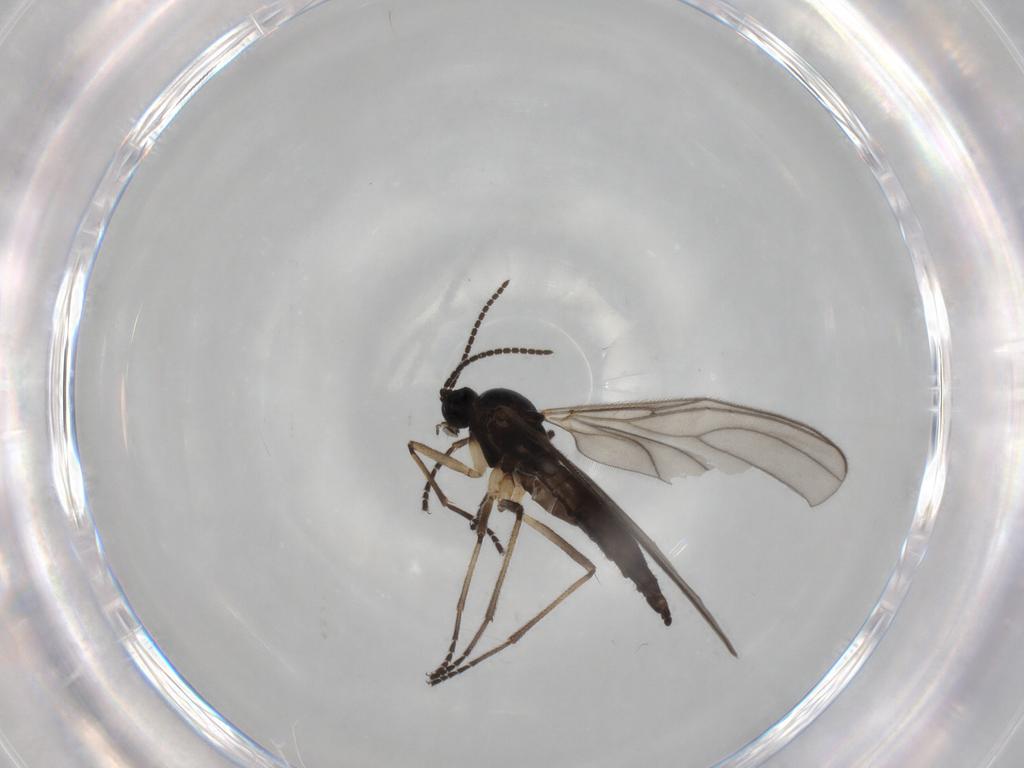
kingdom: Animalia
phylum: Arthropoda
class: Insecta
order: Diptera
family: Sciaridae
